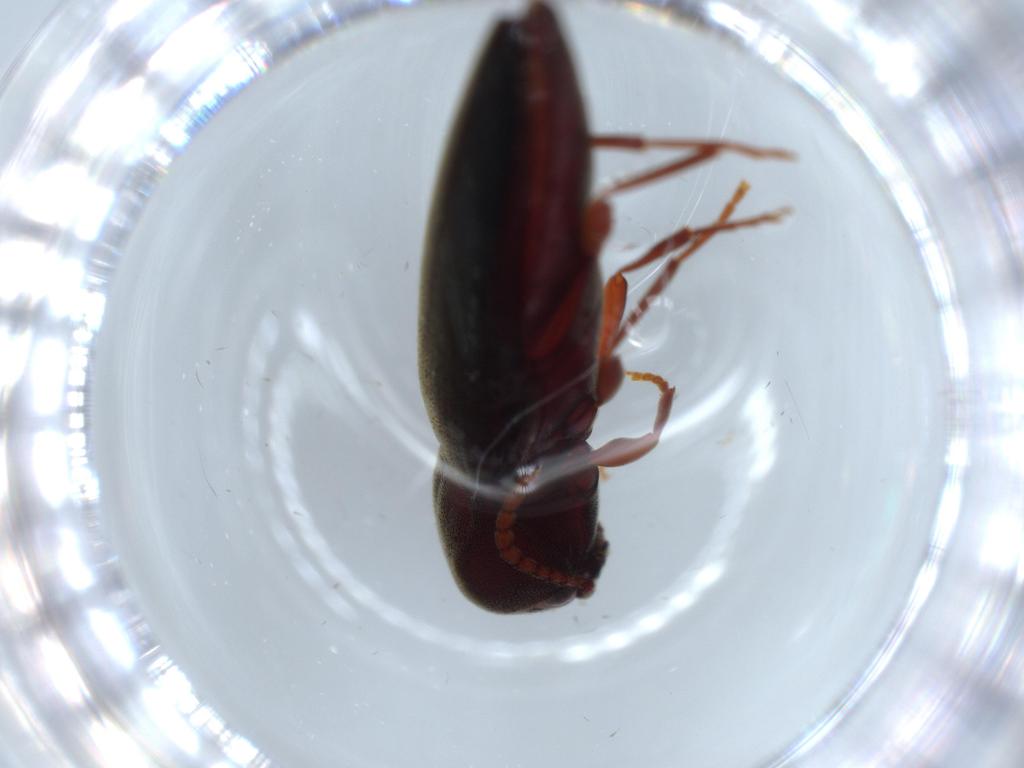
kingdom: Animalia
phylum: Arthropoda
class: Insecta
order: Coleoptera
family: Eucnemidae
